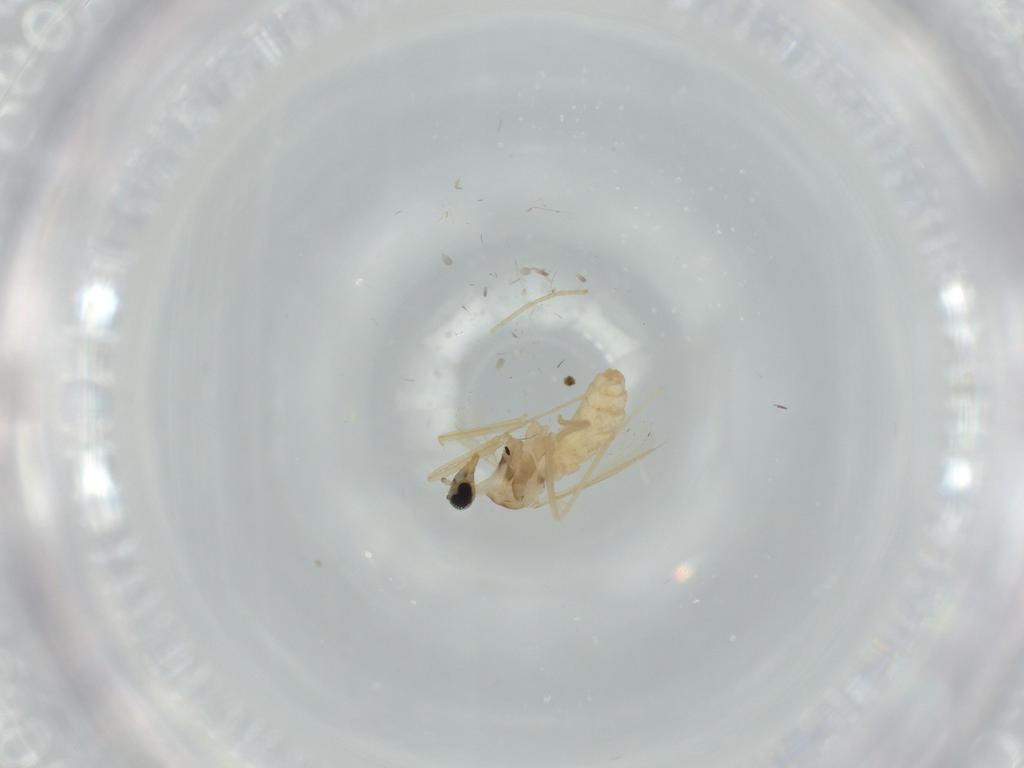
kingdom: Animalia
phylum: Arthropoda
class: Insecta
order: Diptera
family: Cecidomyiidae
